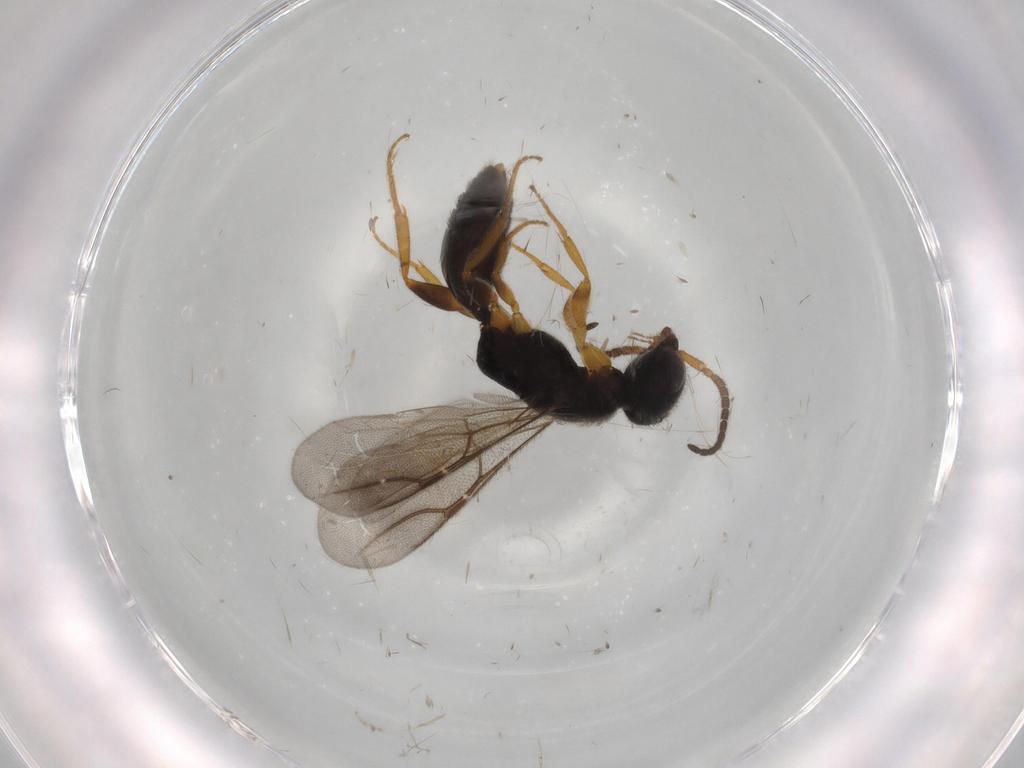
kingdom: Animalia
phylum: Arthropoda
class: Insecta
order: Hymenoptera
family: Bethylidae
